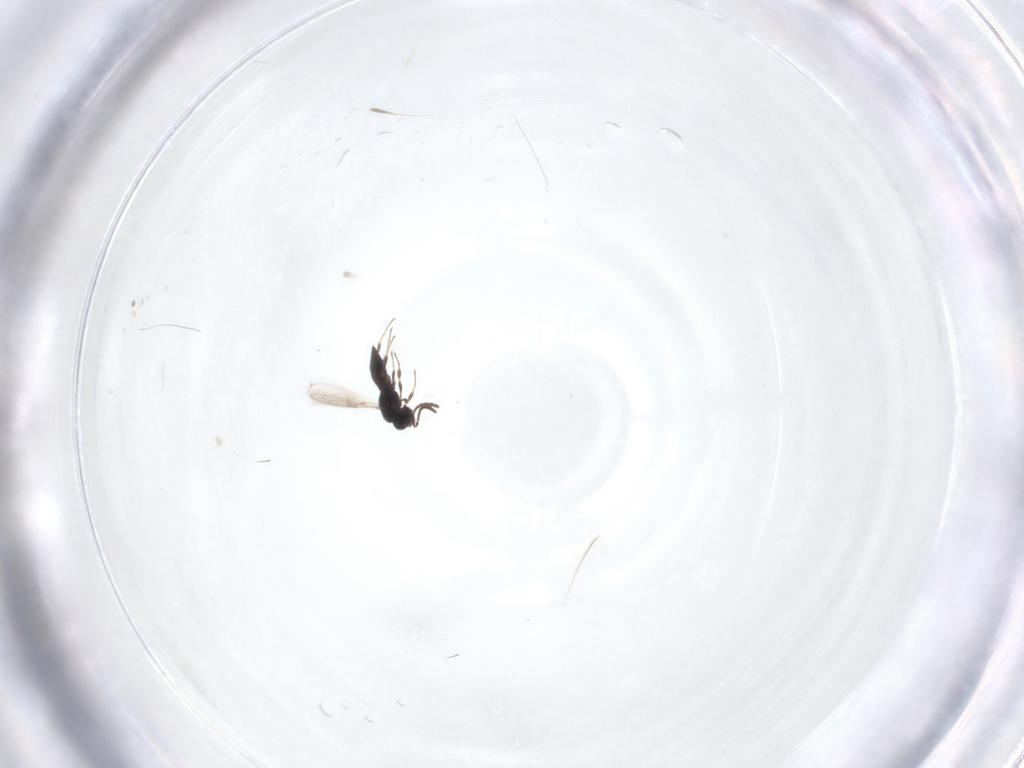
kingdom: Animalia
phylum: Arthropoda
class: Insecta
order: Hymenoptera
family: Scelionidae
